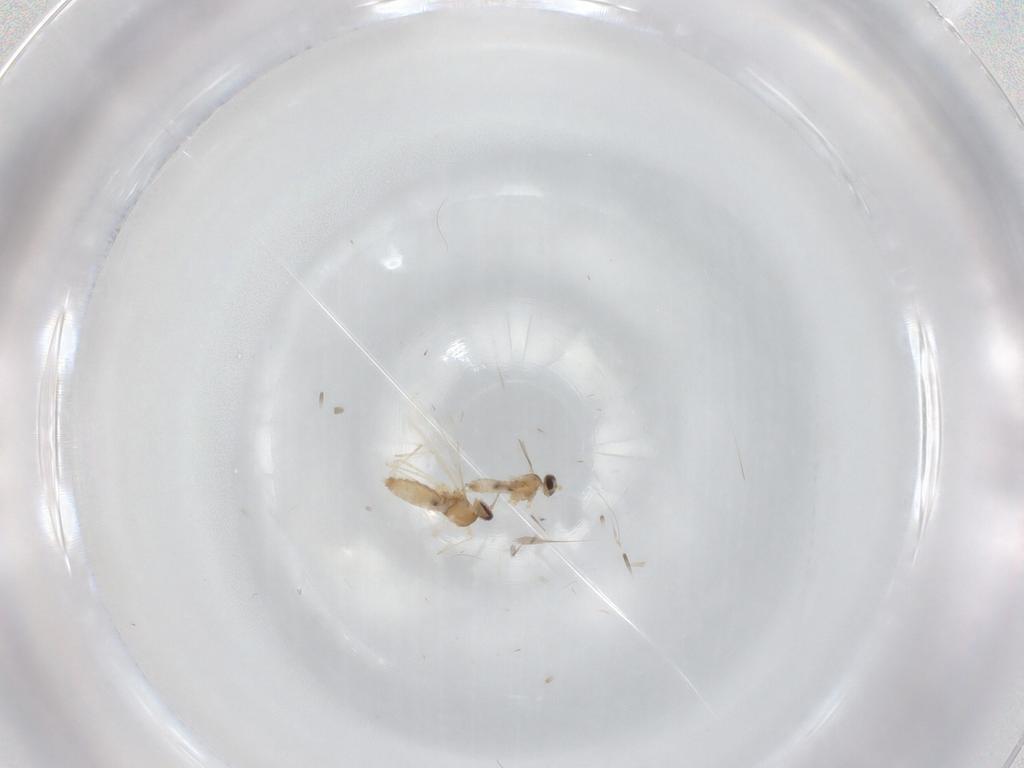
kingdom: Animalia
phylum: Arthropoda
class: Insecta
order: Diptera
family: Cecidomyiidae
